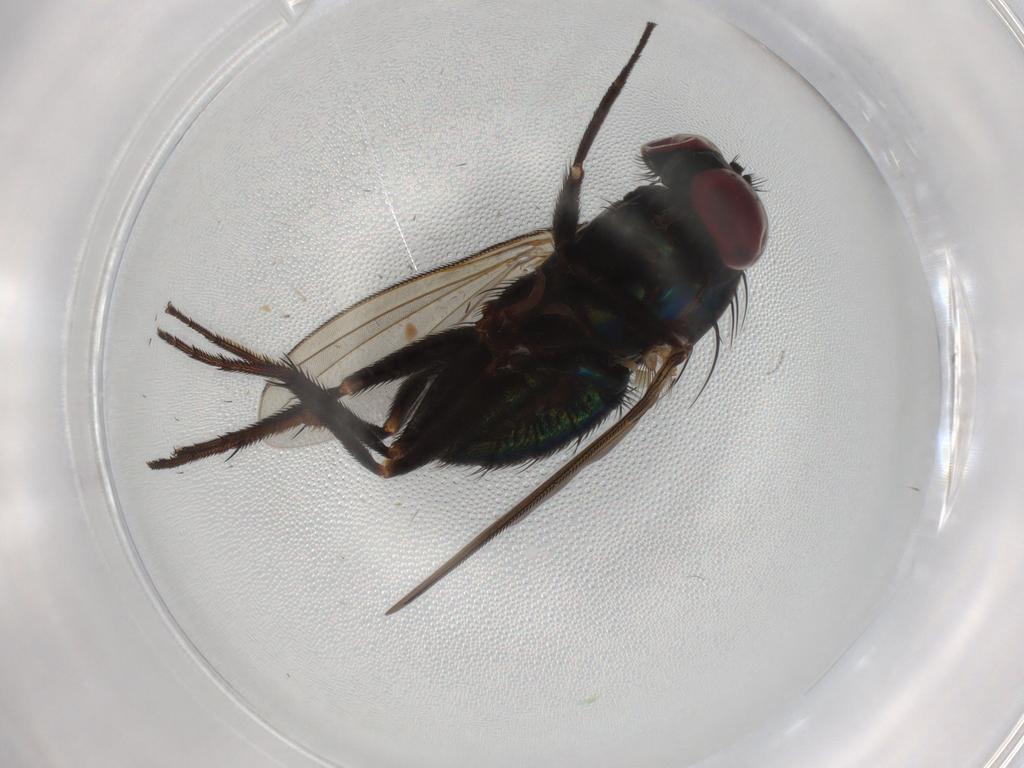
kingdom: Animalia
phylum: Arthropoda
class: Insecta
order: Diptera
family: Dolichopodidae
